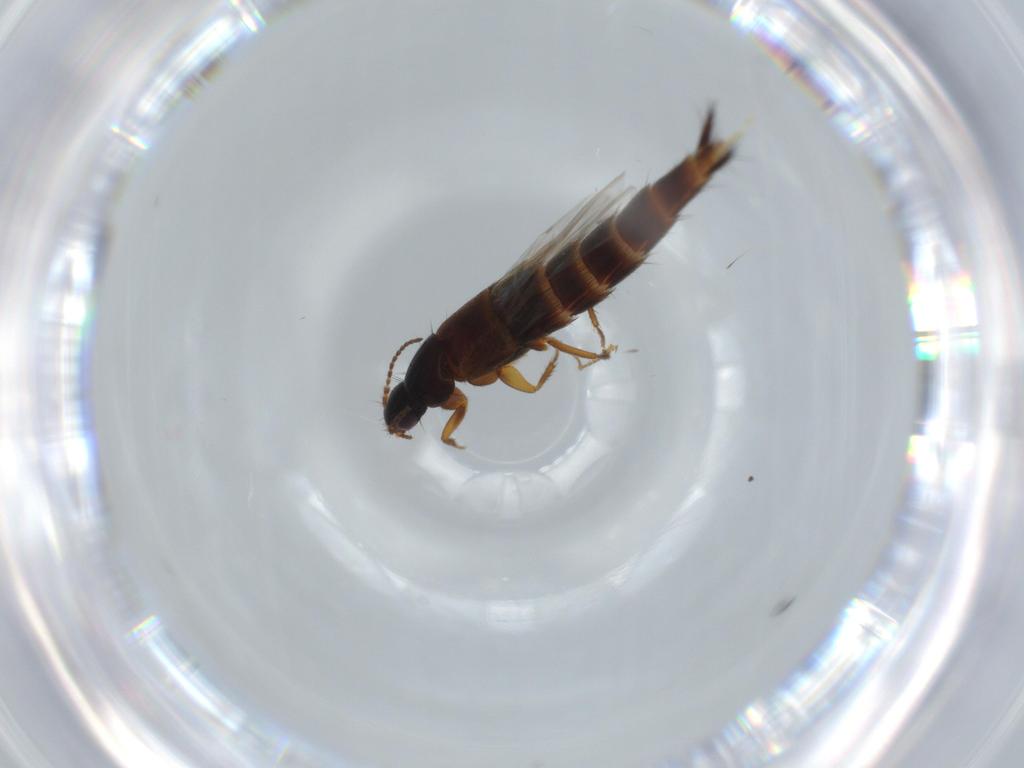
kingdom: Animalia
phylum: Arthropoda
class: Insecta
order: Coleoptera
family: Staphylinidae
